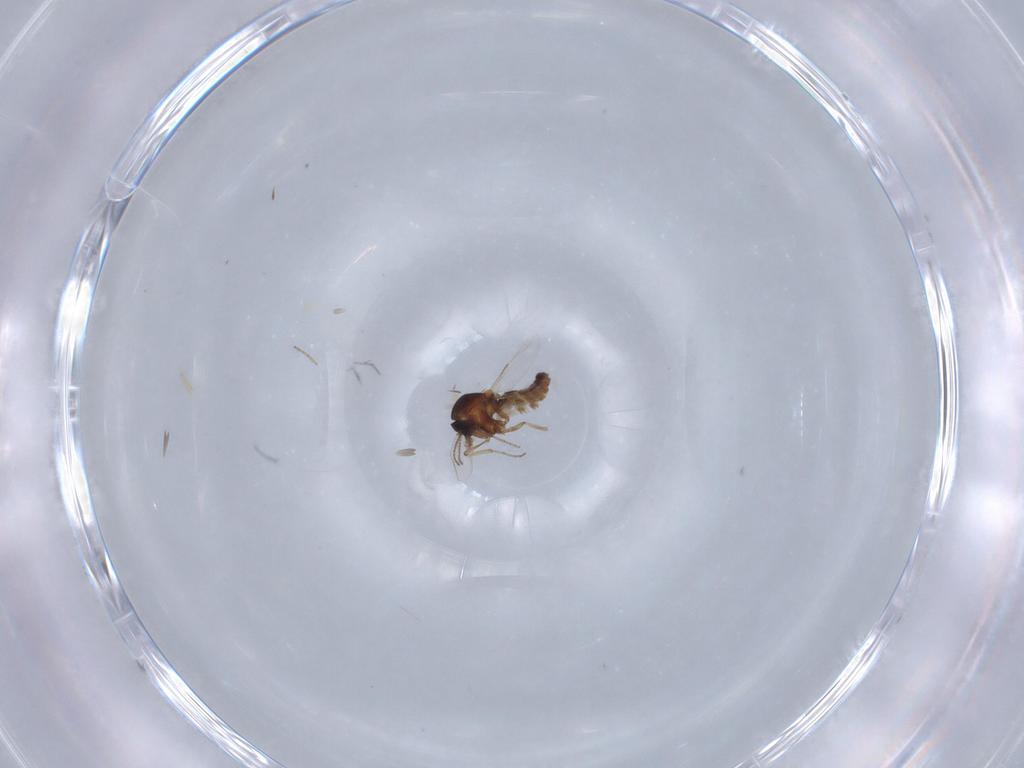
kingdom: Animalia
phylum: Arthropoda
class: Insecta
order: Diptera
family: Ceratopogonidae
